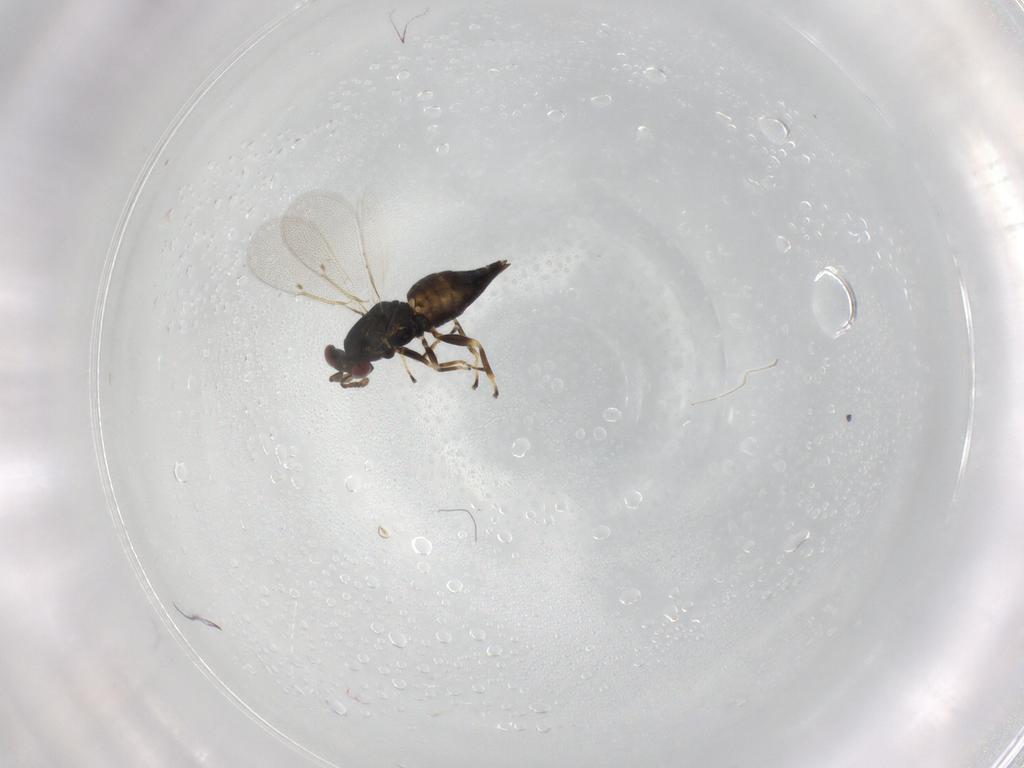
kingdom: Animalia
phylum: Arthropoda
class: Insecta
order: Hymenoptera
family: Eulophidae
